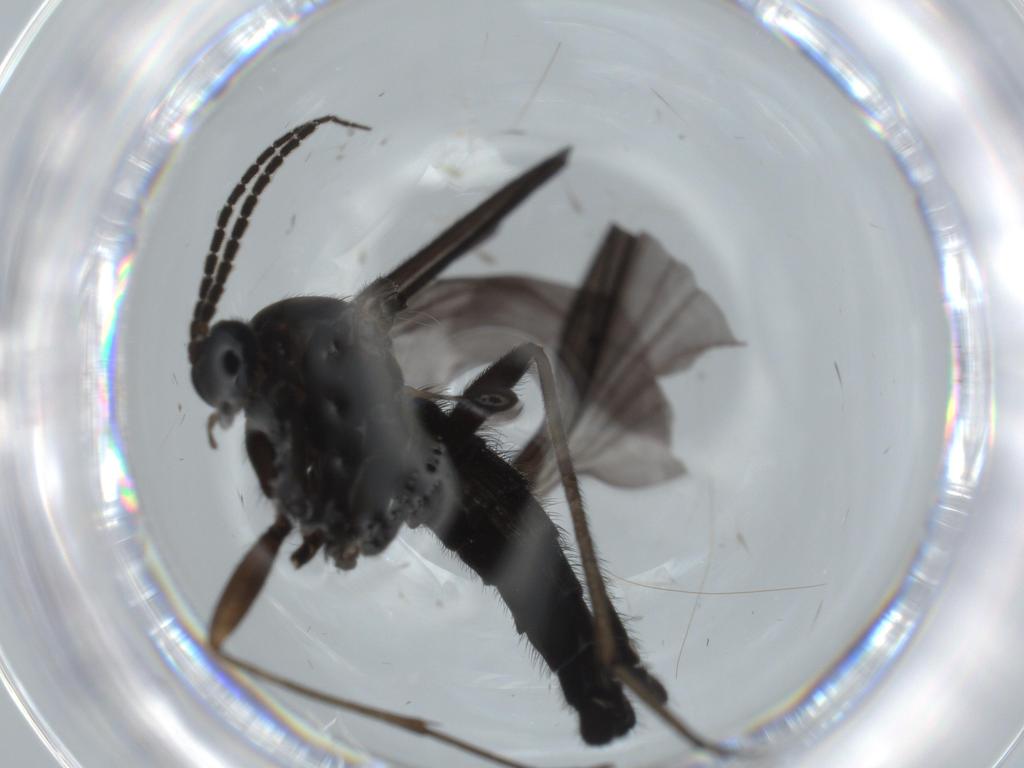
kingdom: Animalia
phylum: Arthropoda
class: Insecta
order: Diptera
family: Sciaridae
